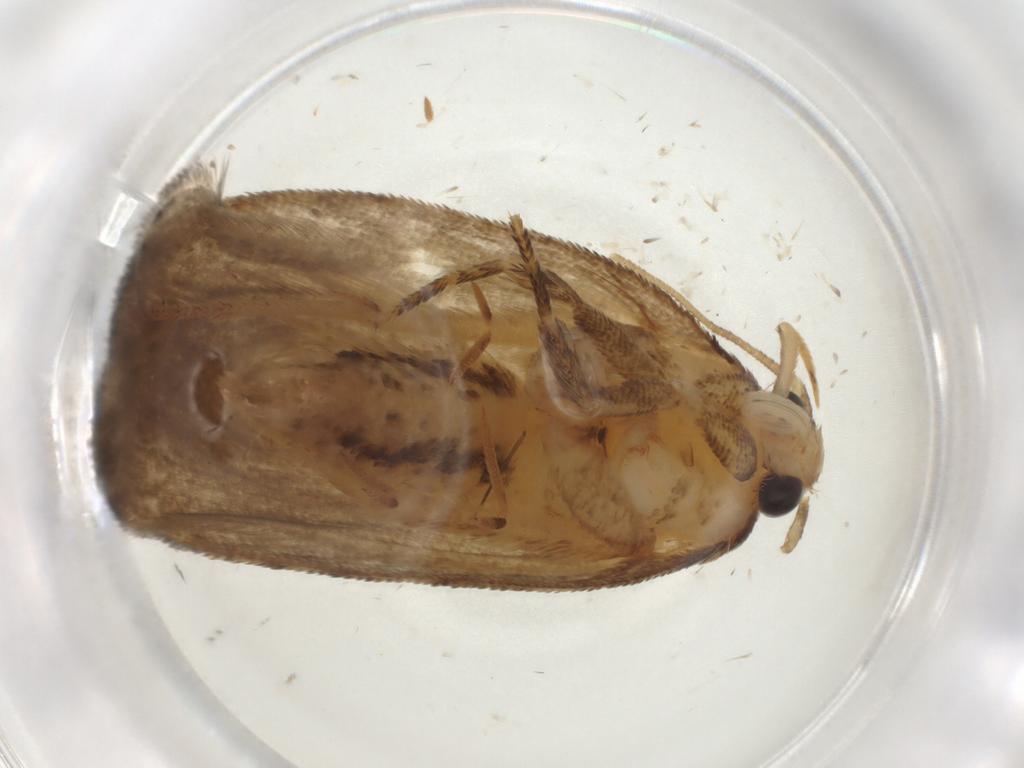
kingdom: Animalia
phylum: Arthropoda
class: Insecta
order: Lepidoptera
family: Depressariidae
